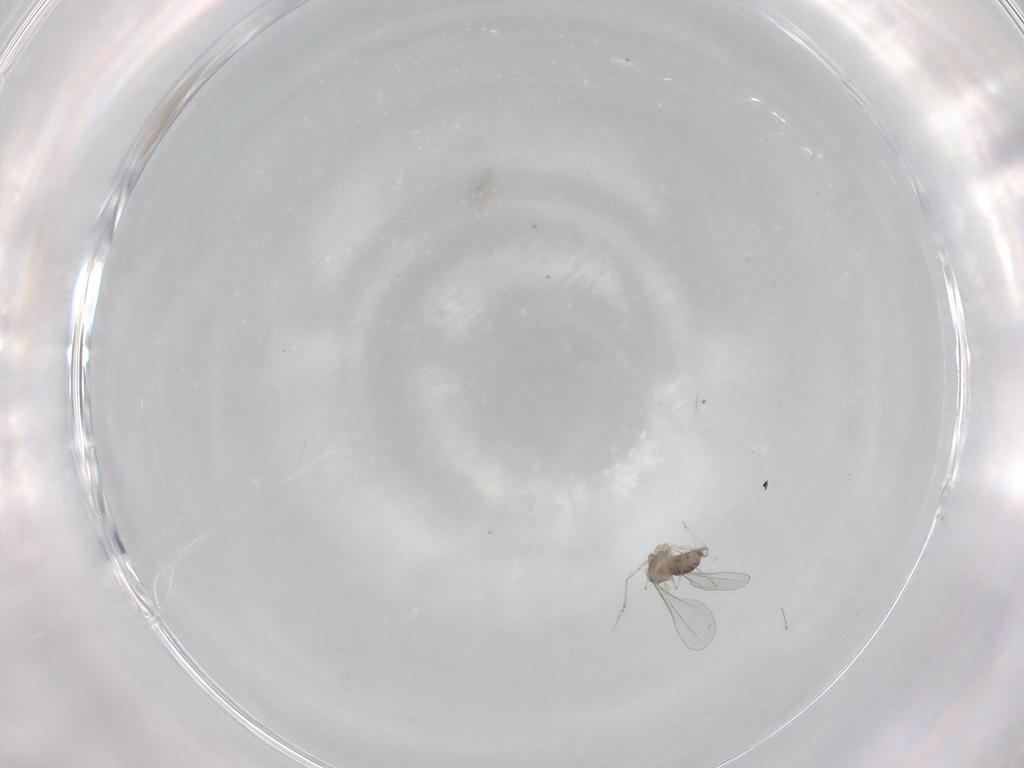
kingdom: Animalia
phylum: Arthropoda
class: Insecta
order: Diptera
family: Cecidomyiidae
